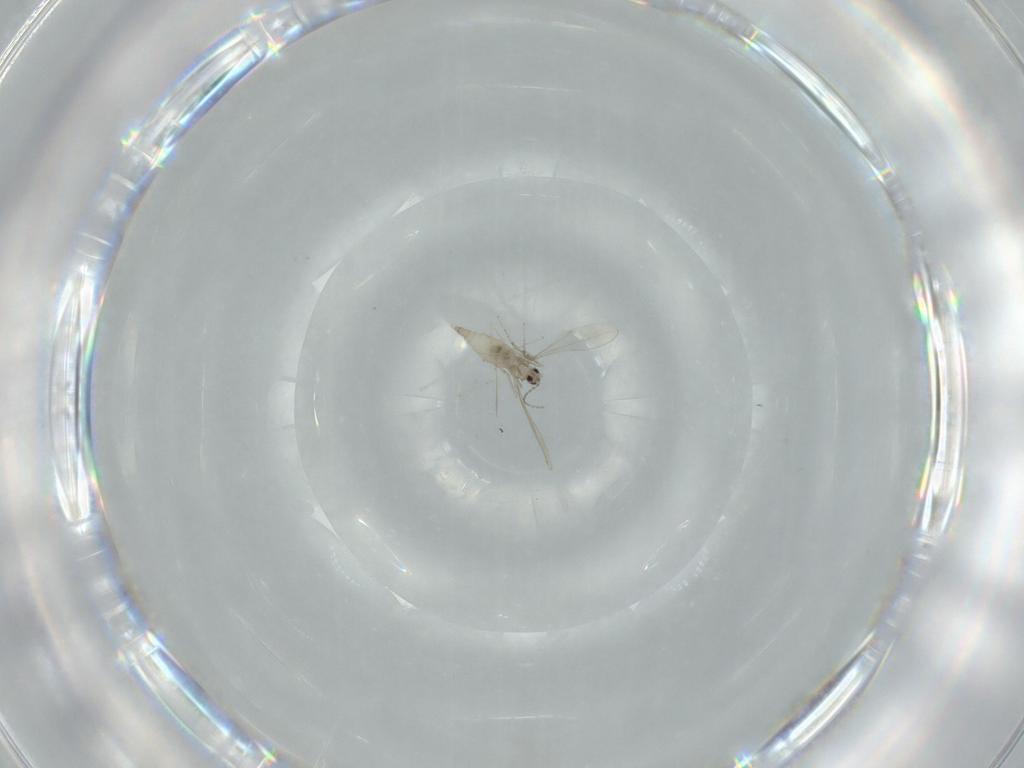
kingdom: Animalia
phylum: Arthropoda
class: Insecta
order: Diptera
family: Cecidomyiidae
